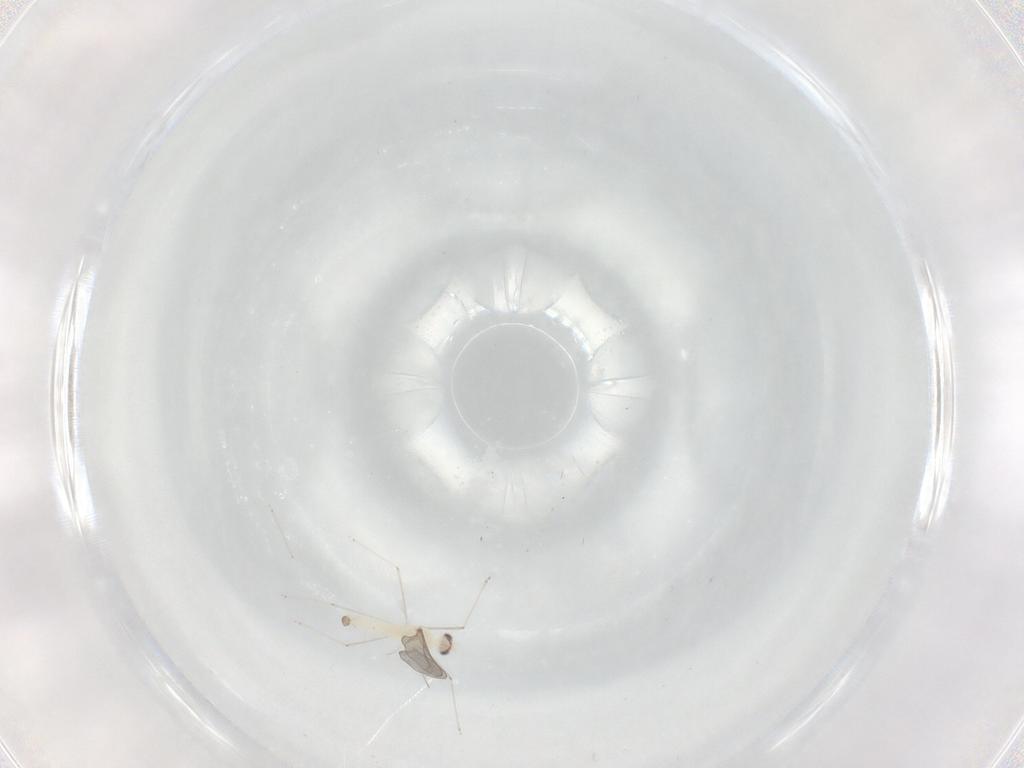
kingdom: Animalia
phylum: Arthropoda
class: Insecta
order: Diptera
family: Cecidomyiidae
